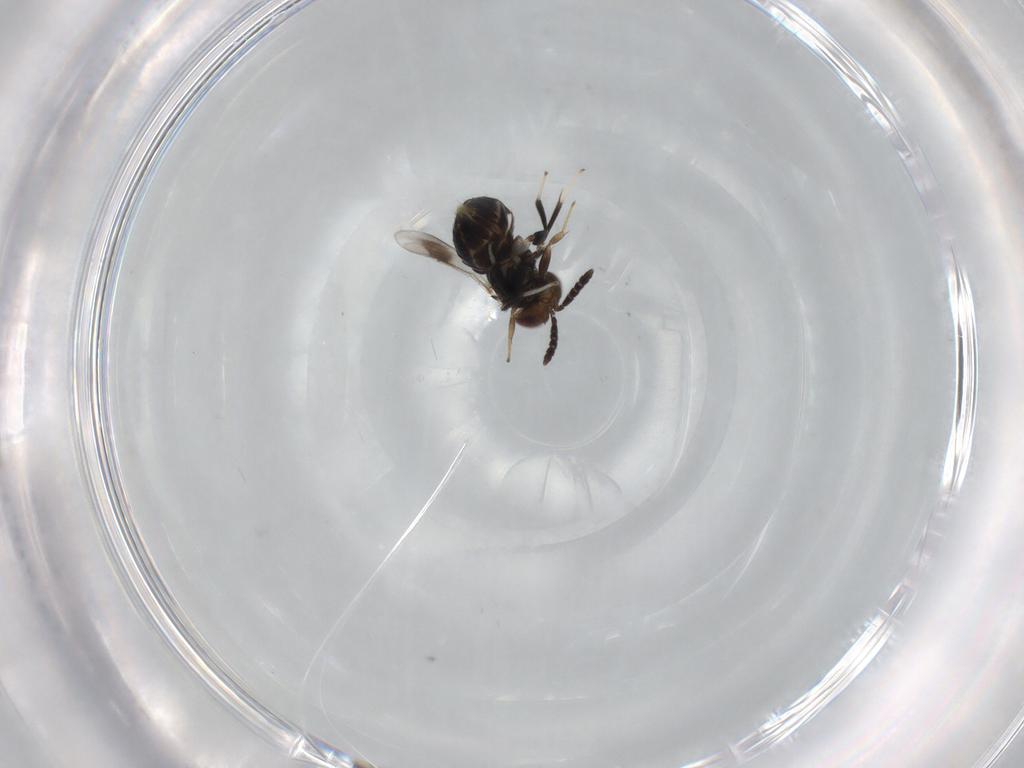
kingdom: Animalia
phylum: Arthropoda
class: Insecta
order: Hymenoptera
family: Aphelinidae
